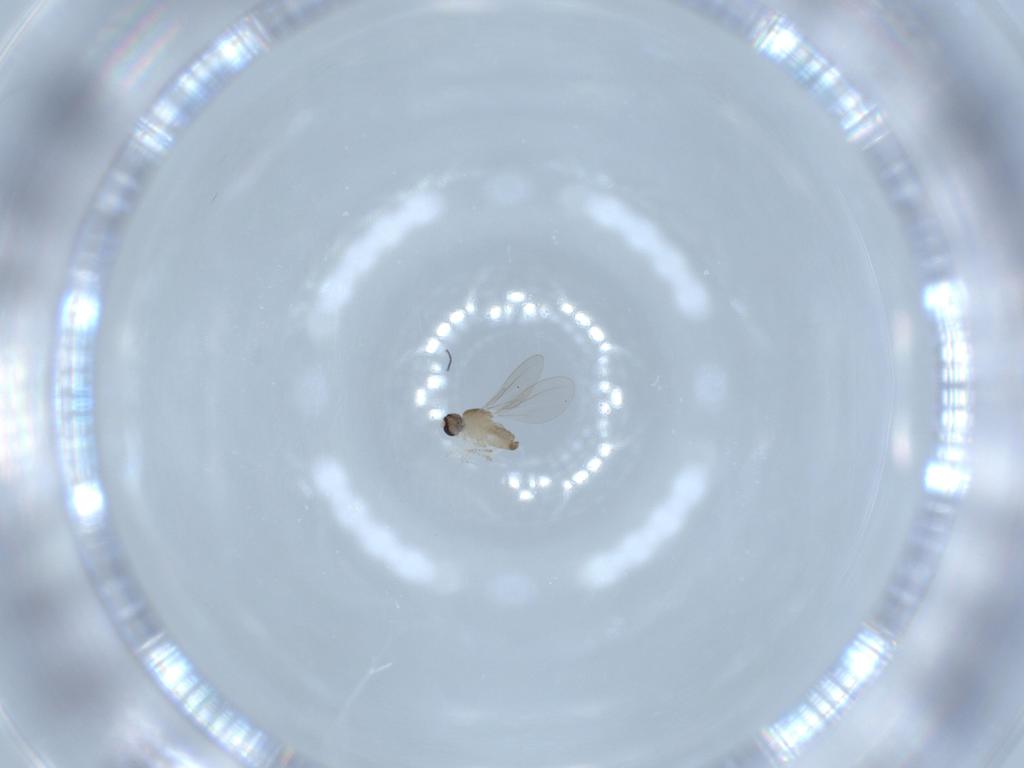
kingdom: Animalia
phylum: Arthropoda
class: Insecta
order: Diptera
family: Cecidomyiidae
